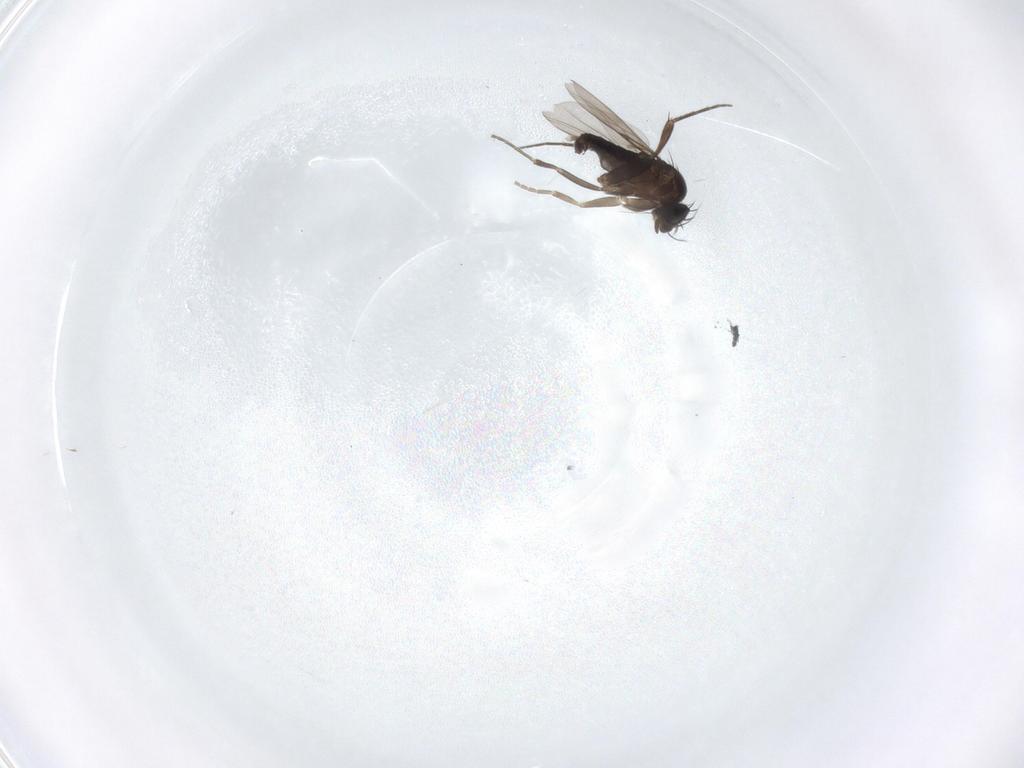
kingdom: Animalia
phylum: Arthropoda
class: Insecta
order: Diptera
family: Phoridae
